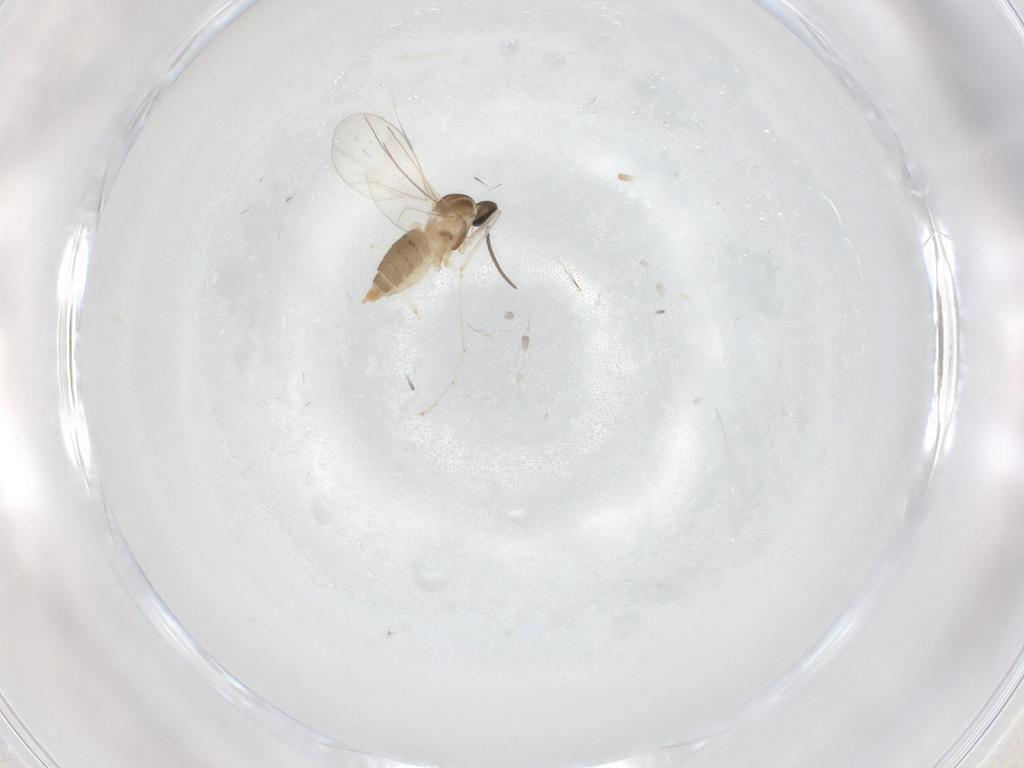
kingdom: Animalia
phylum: Arthropoda
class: Insecta
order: Diptera
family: Cecidomyiidae
